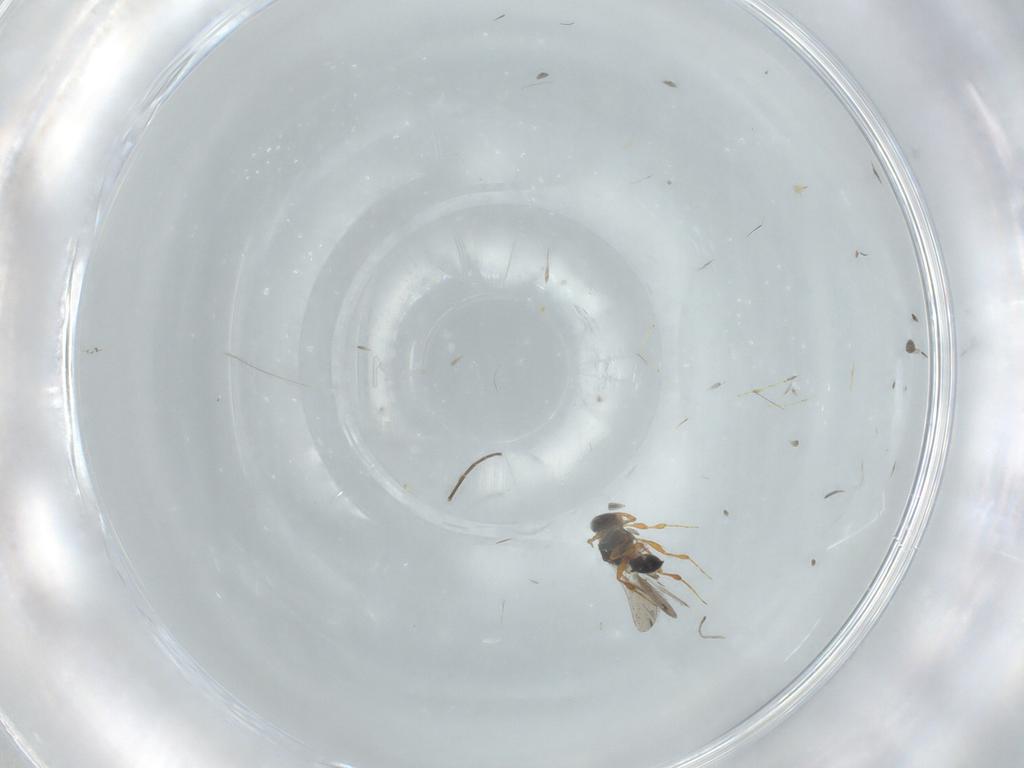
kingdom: Animalia
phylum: Arthropoda
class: Insecta
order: Hymenoptera
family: Platygastridae
